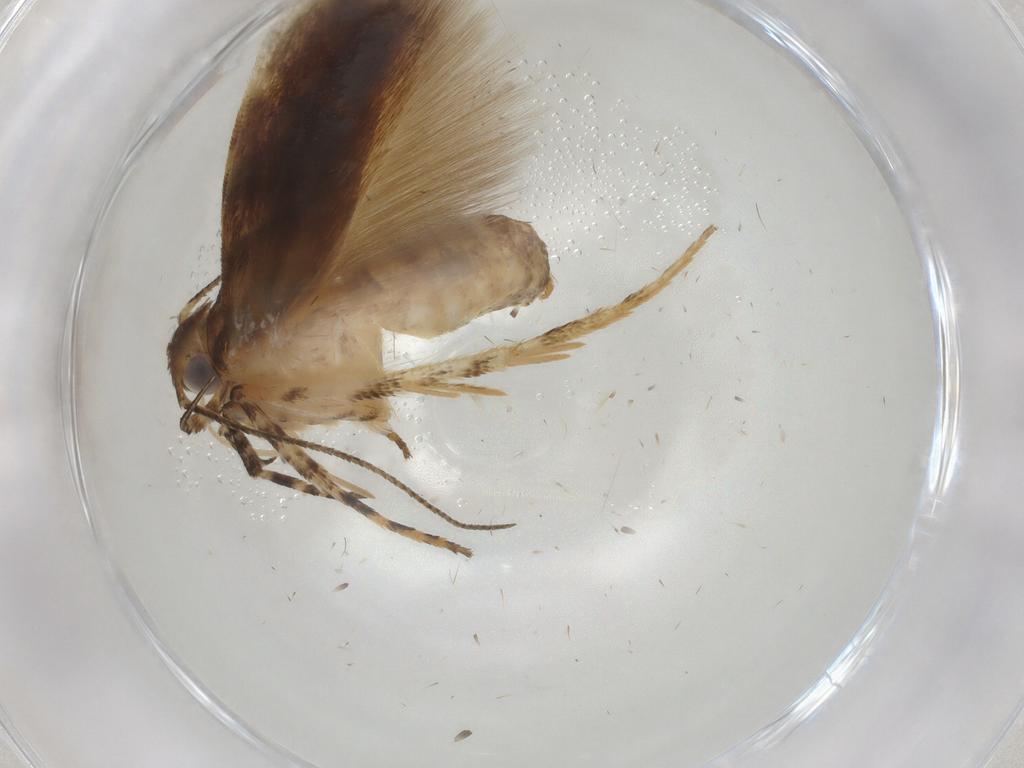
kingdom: Animalia
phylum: Arthropoda
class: Insecta
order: Lepidoptera
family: Gelechiidae
